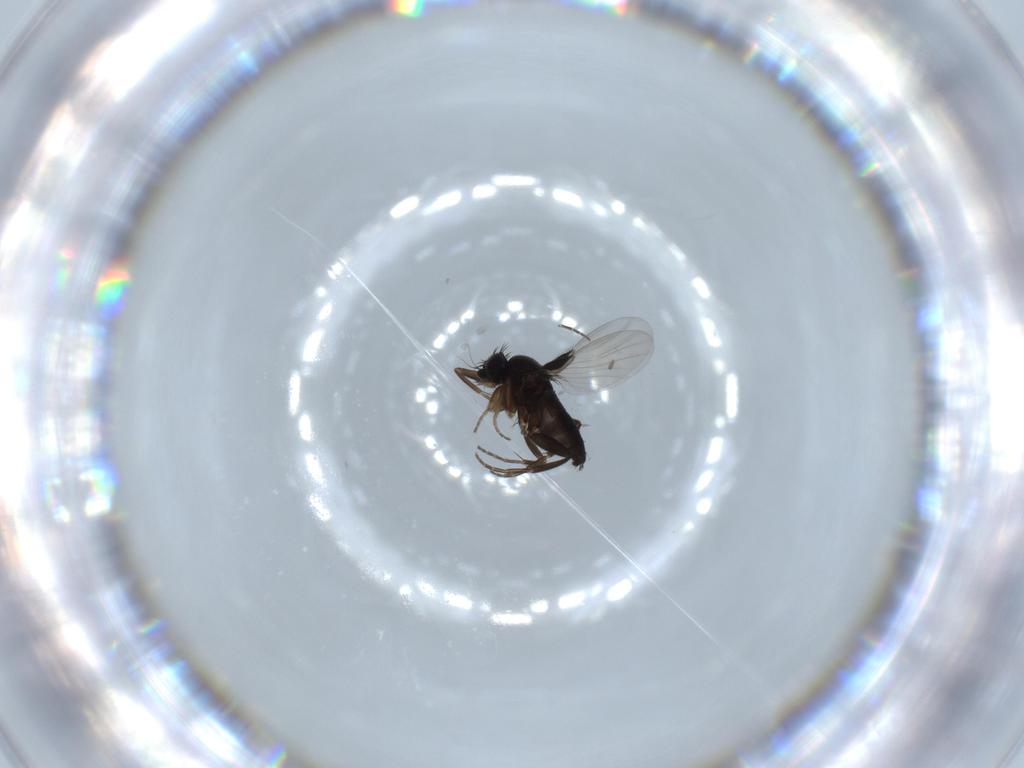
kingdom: Animalia
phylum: Arthropoda
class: Insecta
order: Diptera
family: Phoridae
